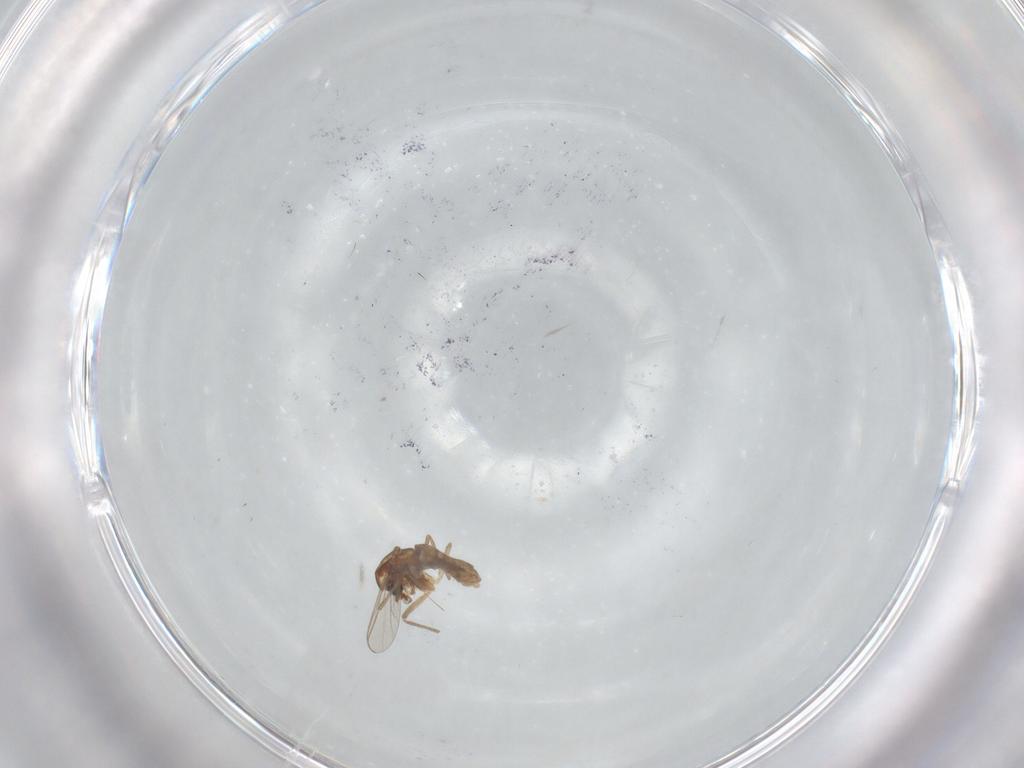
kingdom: Animalia
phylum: Arthropoda
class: Insecta
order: Diptera
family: Chironomidae
